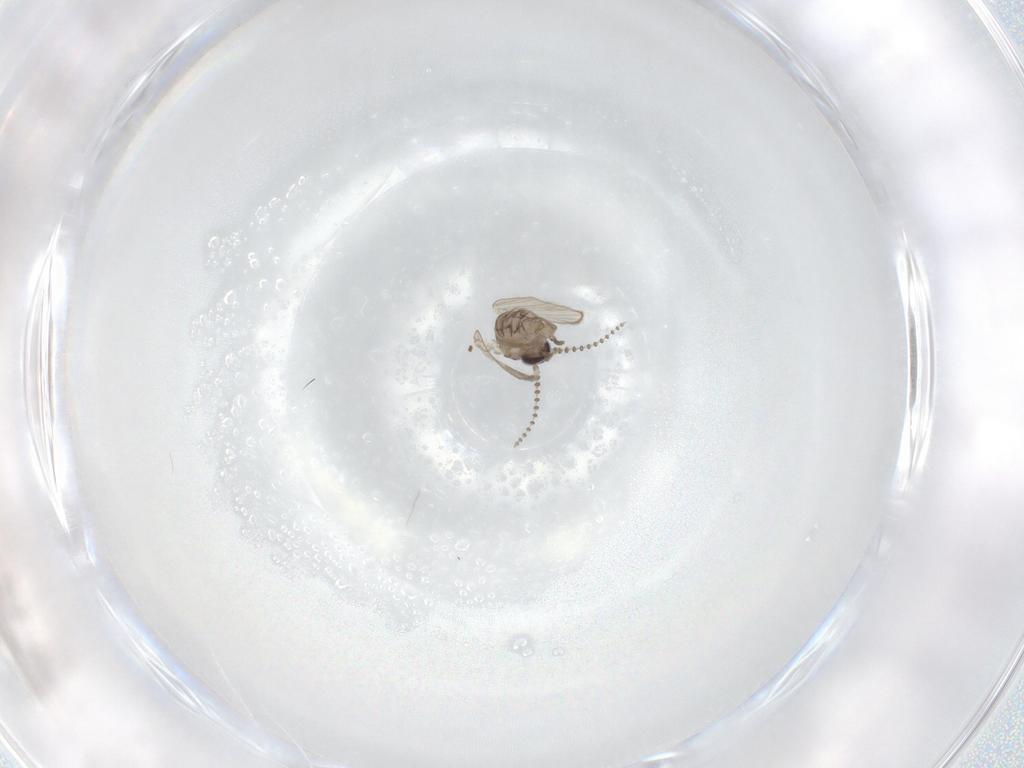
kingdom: Animalia
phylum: Arthropoda
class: Insecta
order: Diptera
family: Psychodidae
